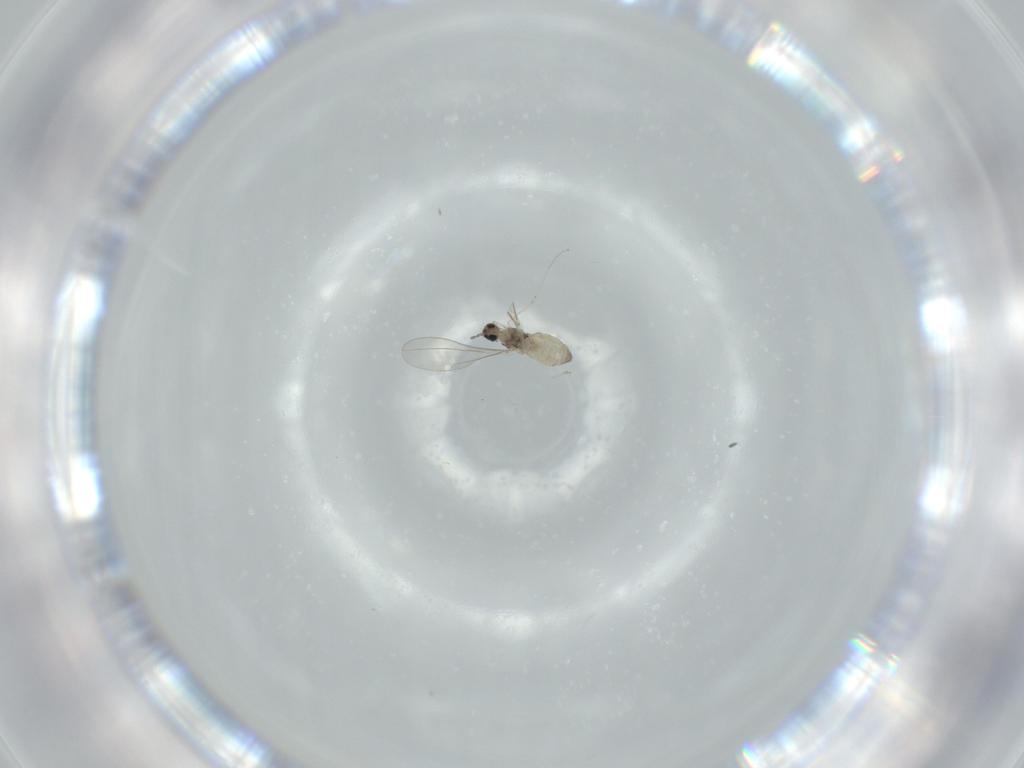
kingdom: Animalia
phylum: Arthropoda
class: Insecta
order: Diptera
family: Cecidomyiidae
